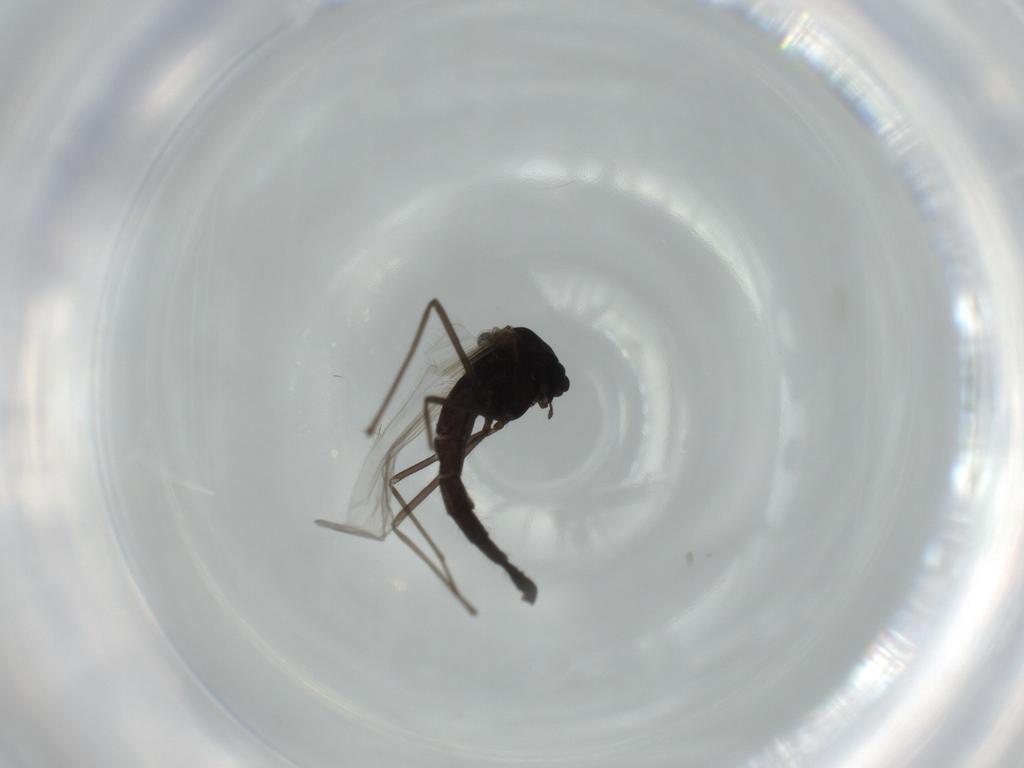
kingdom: Animalia
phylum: Arthropoda
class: Insecta
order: Diptera
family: Chironomidae
